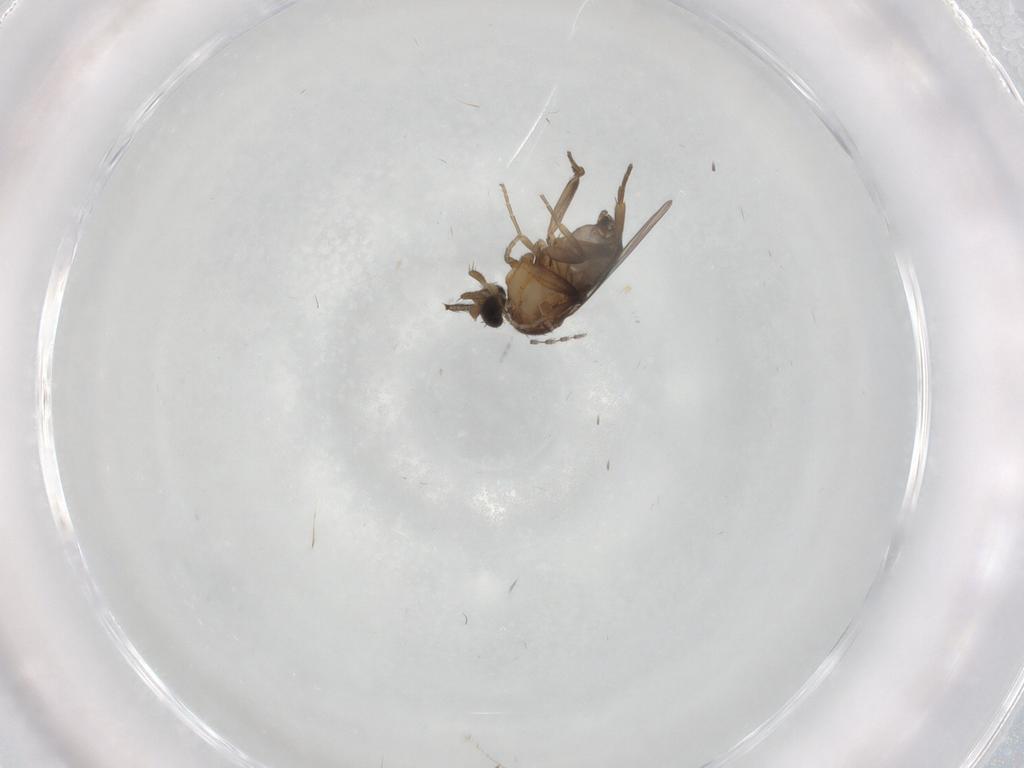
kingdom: Animalia
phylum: Arthropoda
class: Insecta
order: Diptera
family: Phoridae
